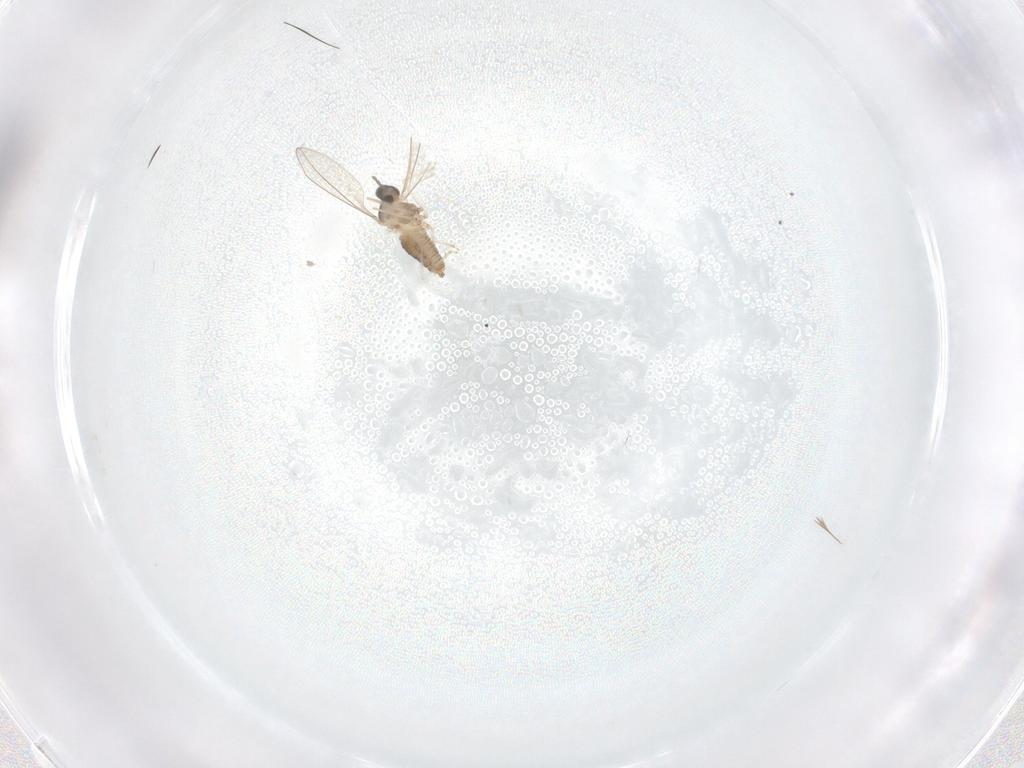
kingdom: Animalia
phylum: Arthropoda
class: Insecta
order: Diptera
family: Cecidomyiidae
